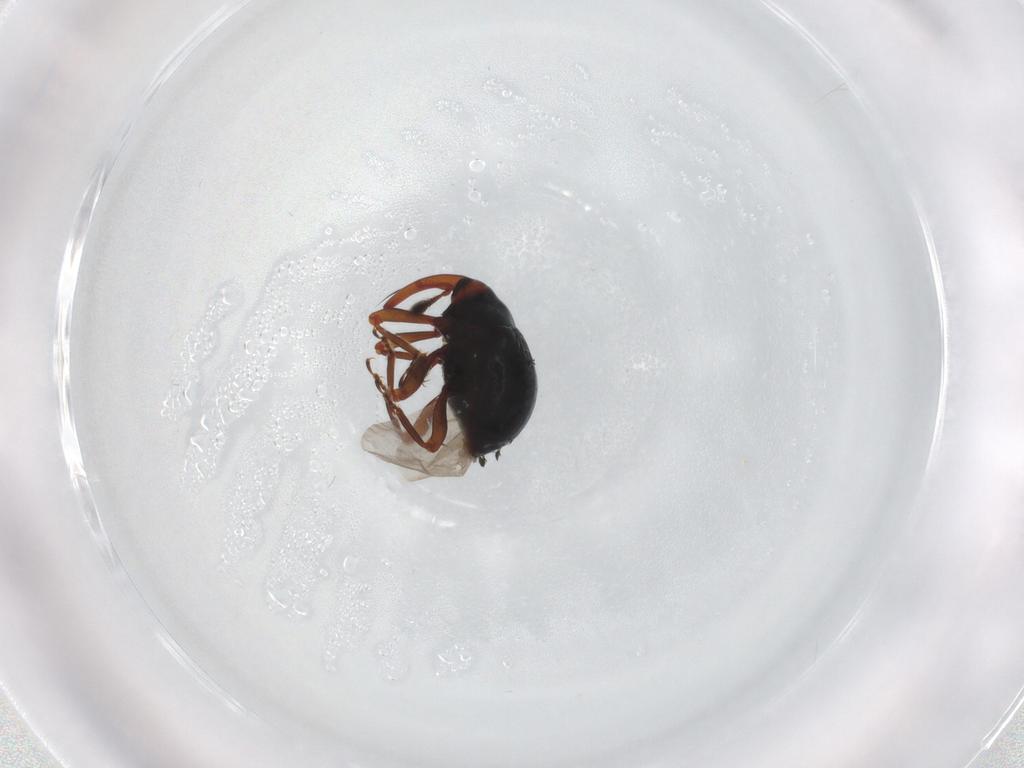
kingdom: Animalia
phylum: Arthropoda
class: Insecta
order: Coleoptera
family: Curculionidae
